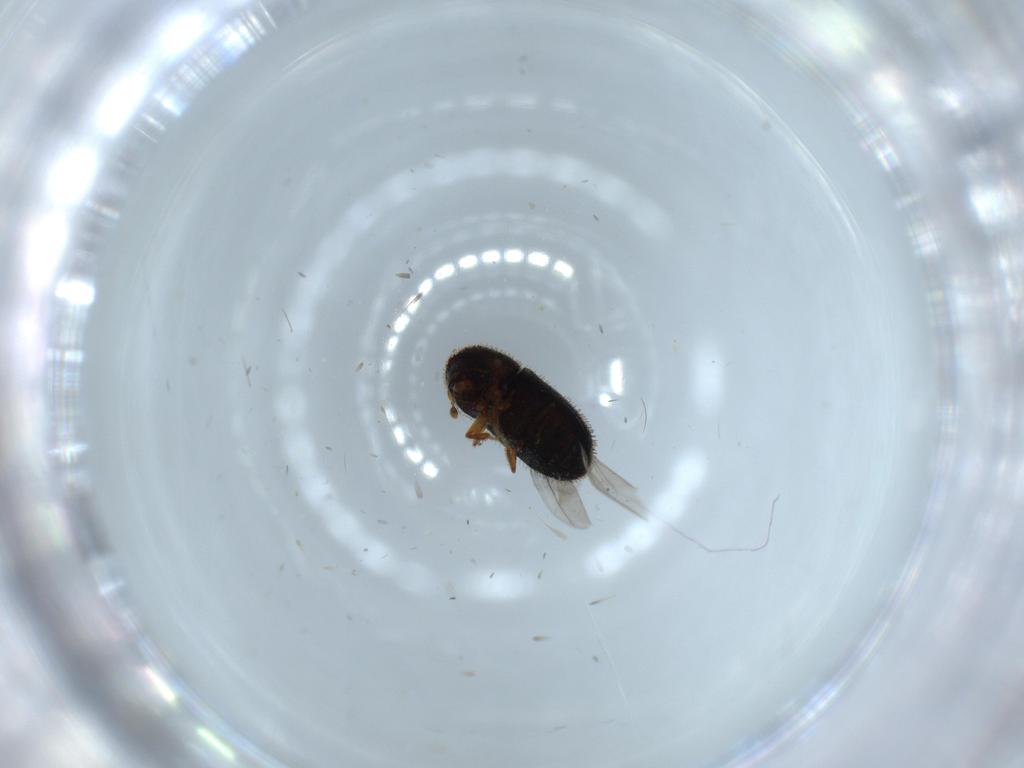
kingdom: Animalia
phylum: Arthropoda
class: Insecta
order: Coleoptera
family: Curculionidae
